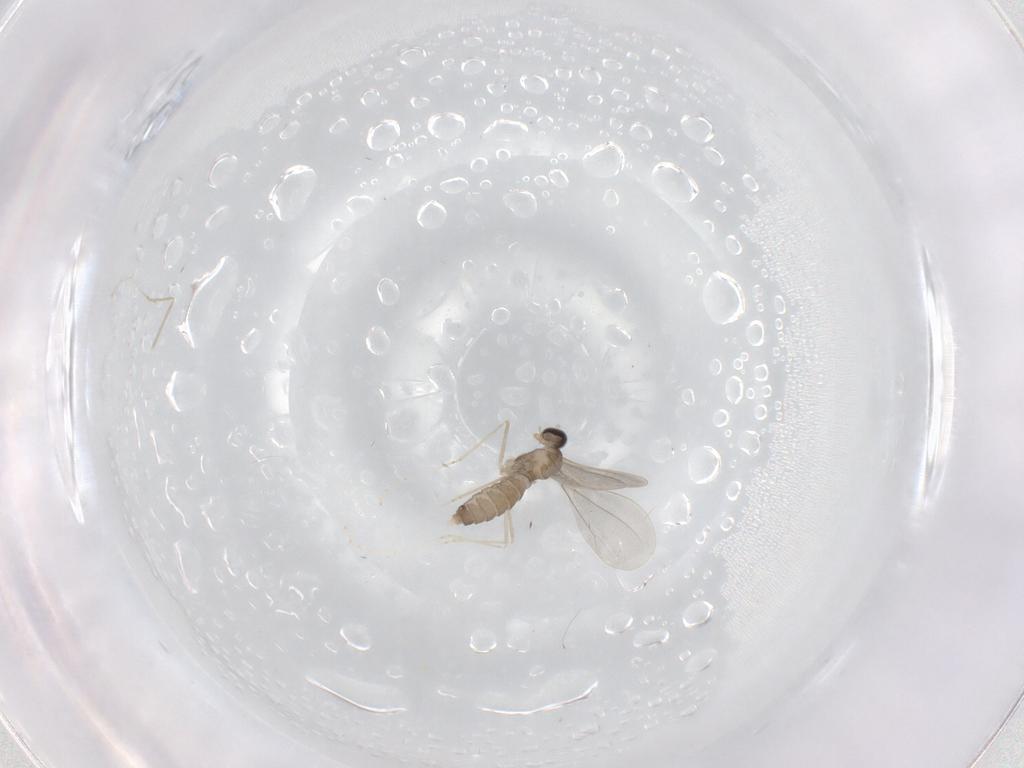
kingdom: Animalia
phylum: Arthropoda
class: Insecta
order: Diptera
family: Cecidomyiidae
